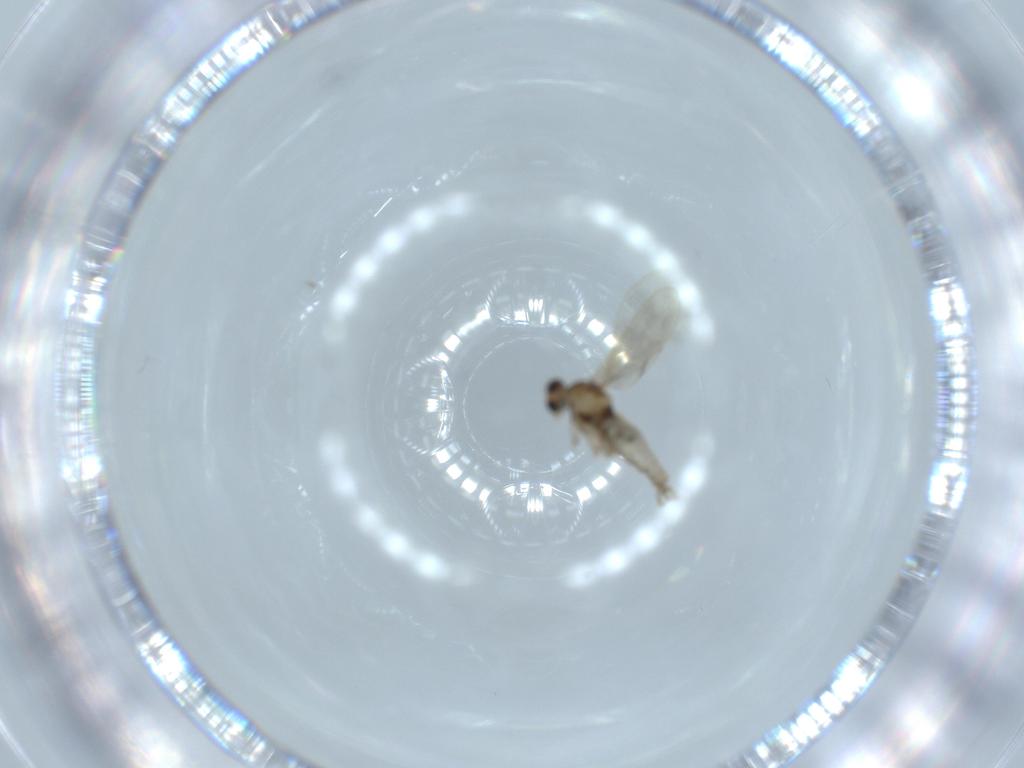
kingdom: Animalia
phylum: Arthropoda
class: Insecta
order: Diptera
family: Cecidomyiidae
